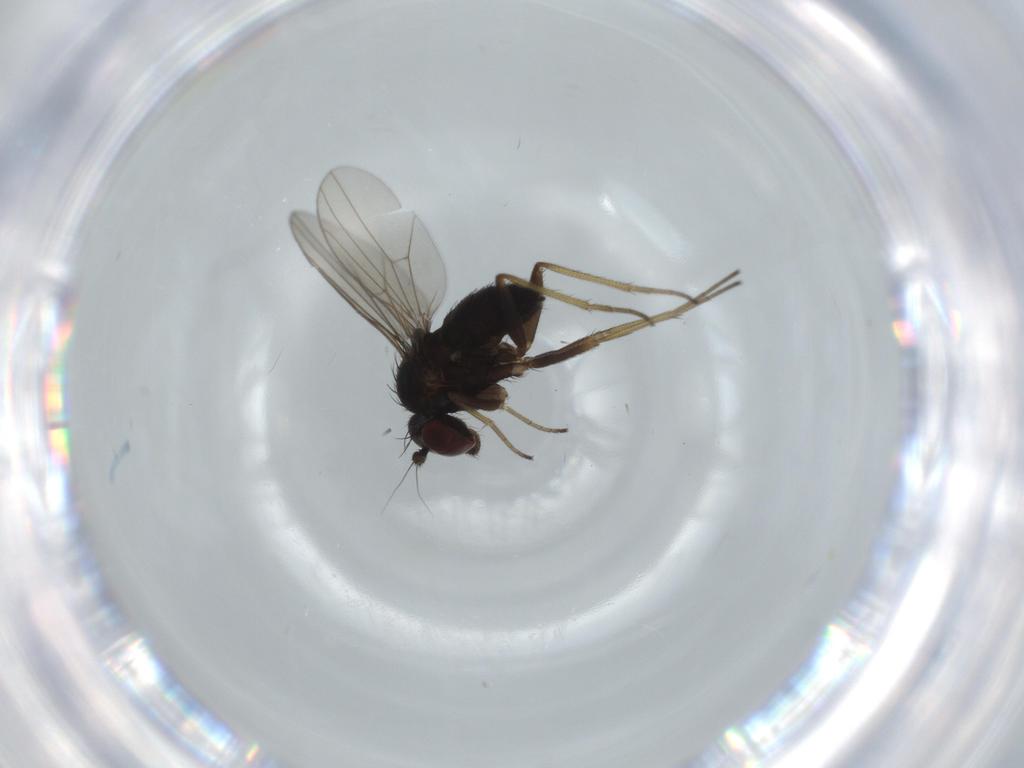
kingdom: Animalia
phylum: Arthropoda
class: Insecta
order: Diptera
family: Dolichopodidae
